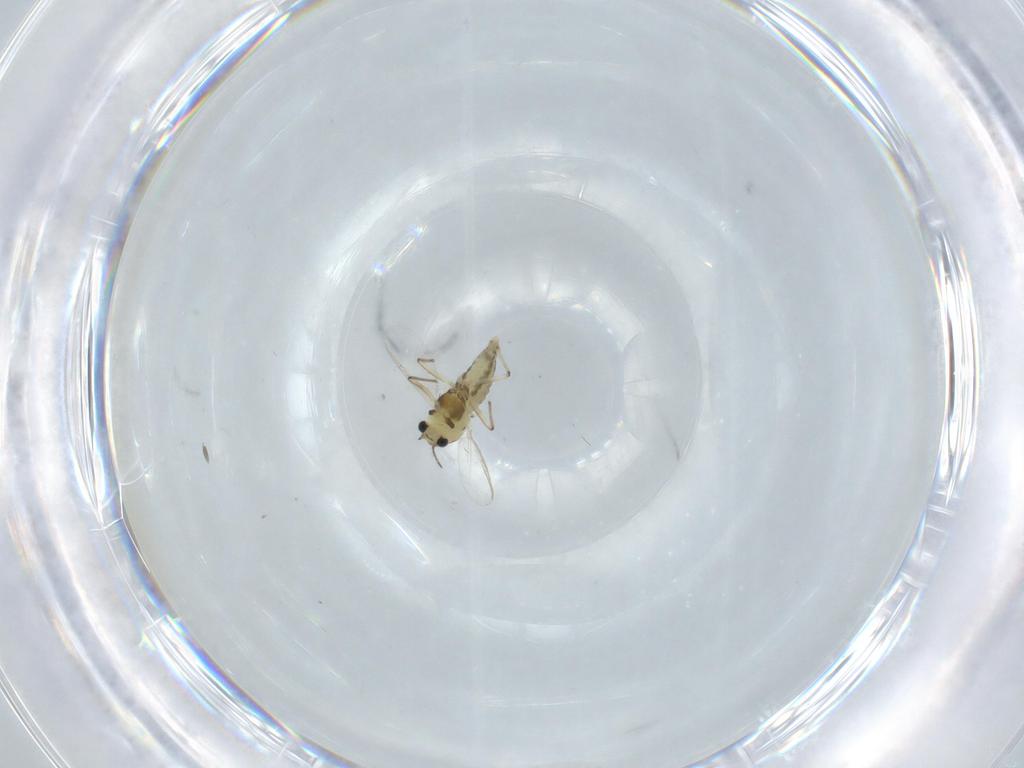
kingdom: Animalia
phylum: Arthropoda
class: Insecta
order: Diptera
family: Chironomidae
